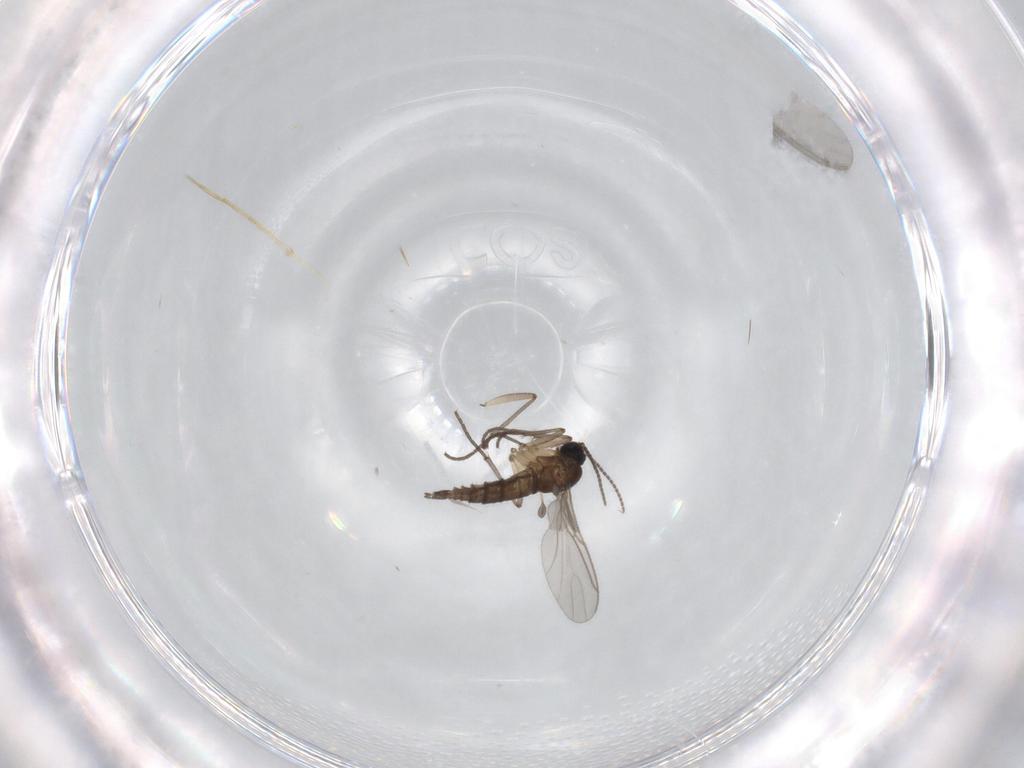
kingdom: Animalia
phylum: Arthropoda
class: Insecta
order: Diptera
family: Sciaridae
